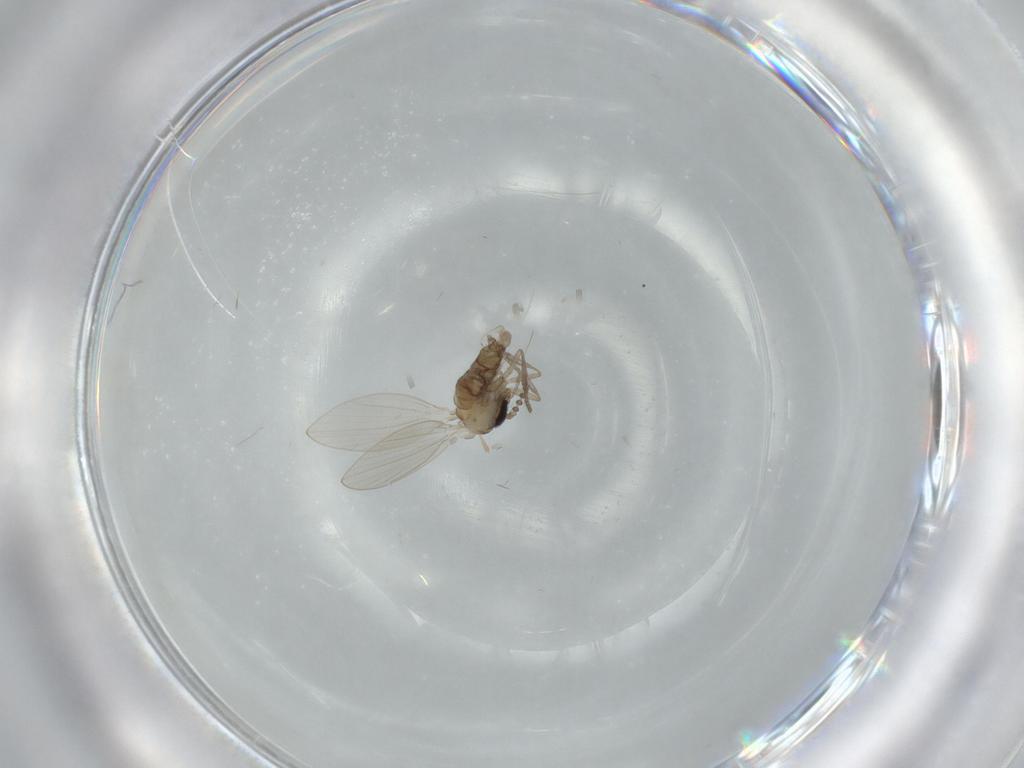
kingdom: Animalia
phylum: Arthropoda
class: Insecta
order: Diptera
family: Psychodidae
